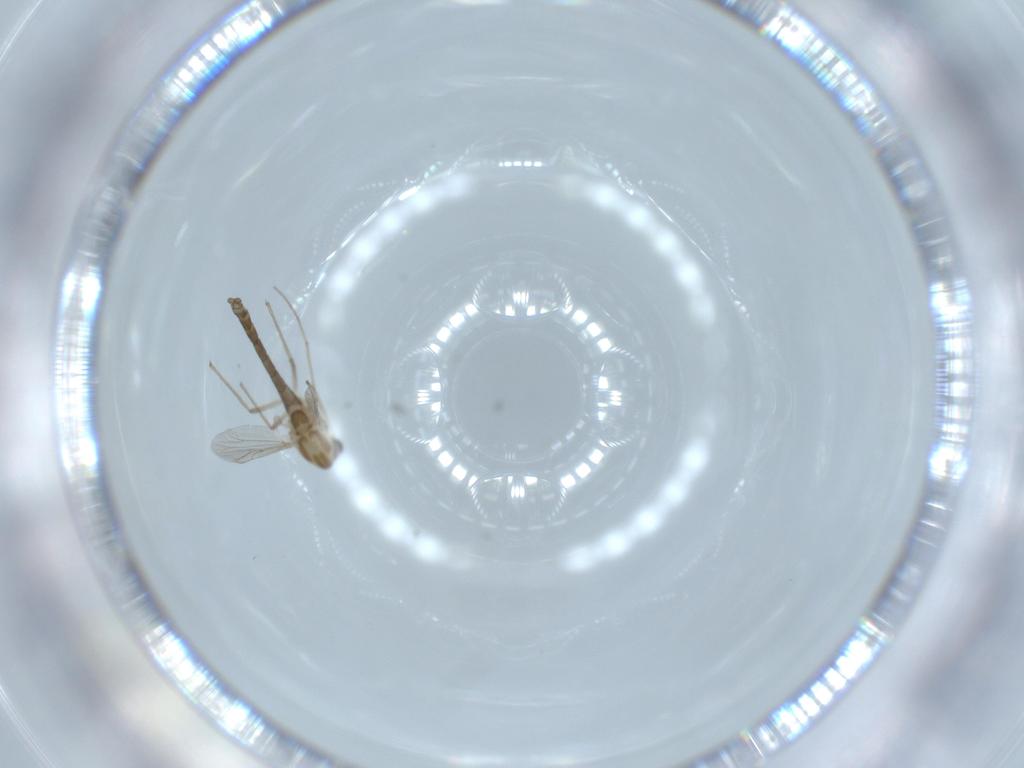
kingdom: Animalia
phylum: Arthropoda
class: Insecta
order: Diptera
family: Chironomidae
